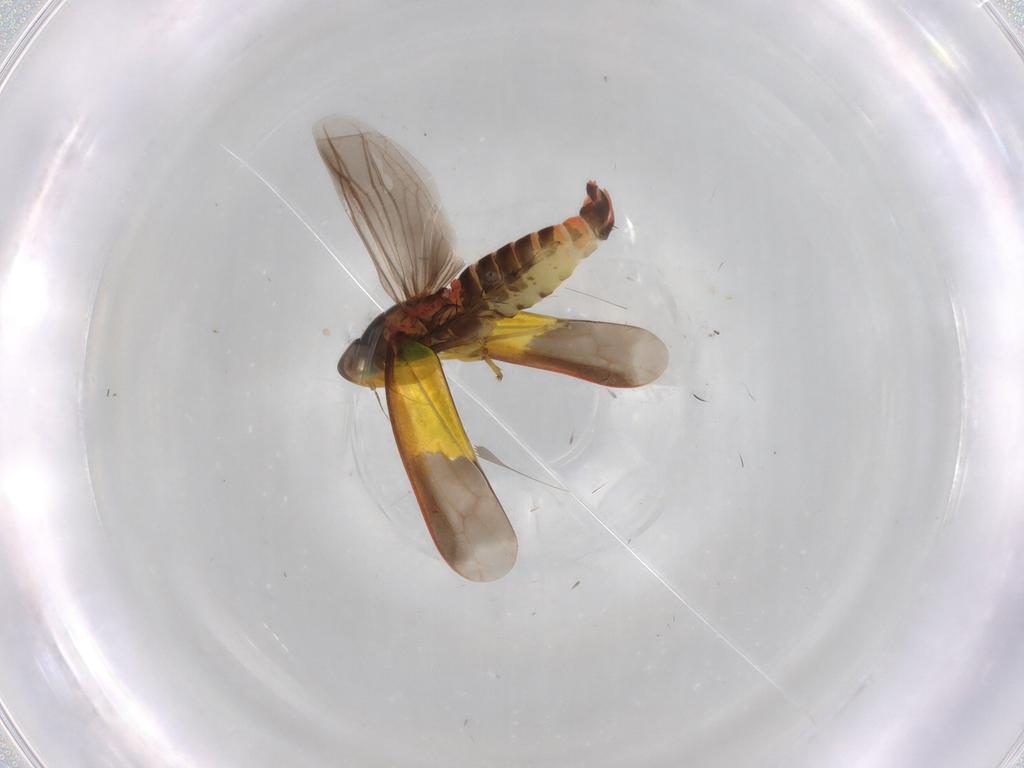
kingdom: Animalia
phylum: Arthropoda
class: Insecta
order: Hemiptera
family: Cicadellidae
